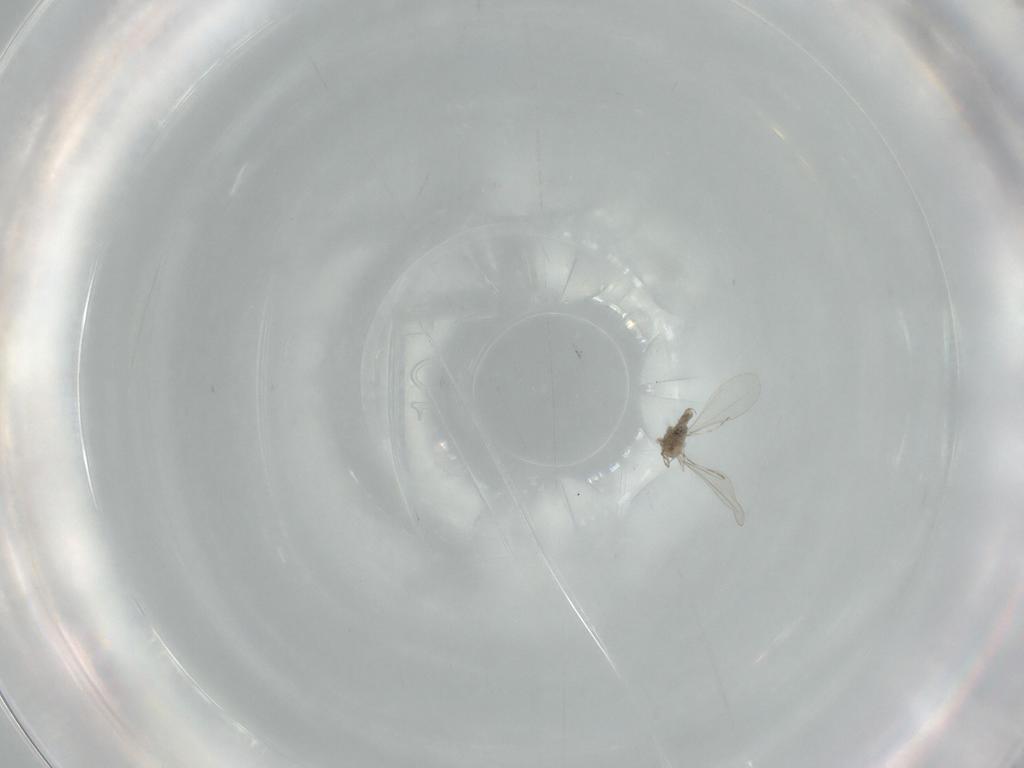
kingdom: Animalia
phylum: Arthropoda
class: Insecta
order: Diptera
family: Cecidomyiidae
